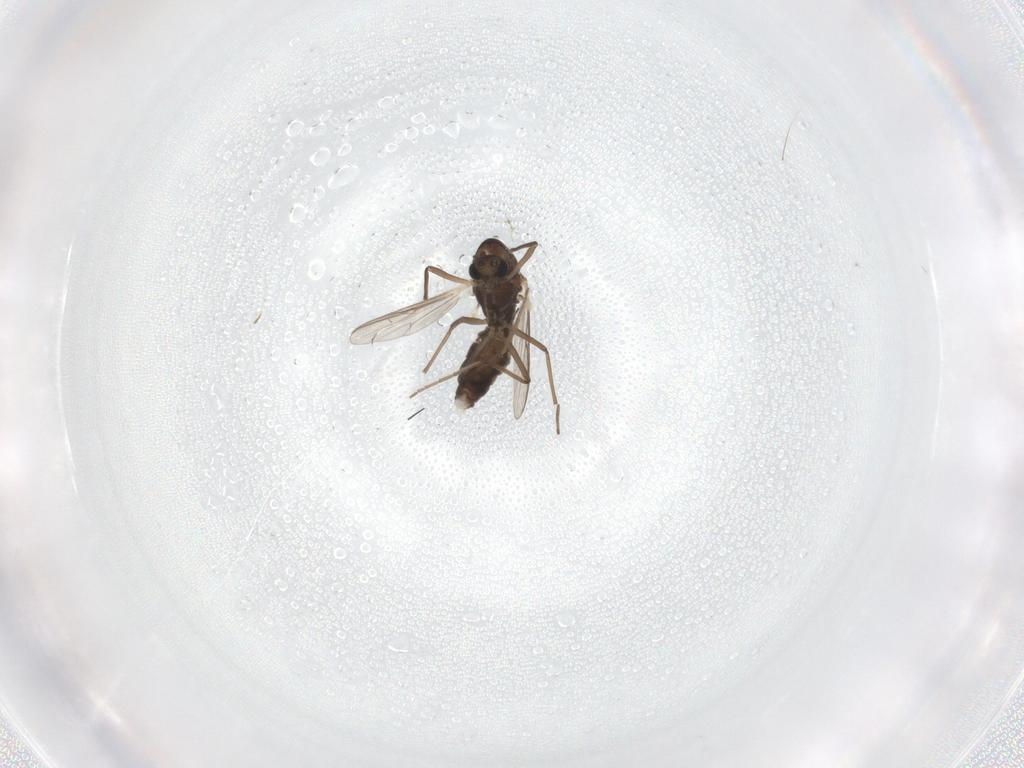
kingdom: Animalia
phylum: Arthropoda
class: Insecta
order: Diptera
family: Chironomidae
